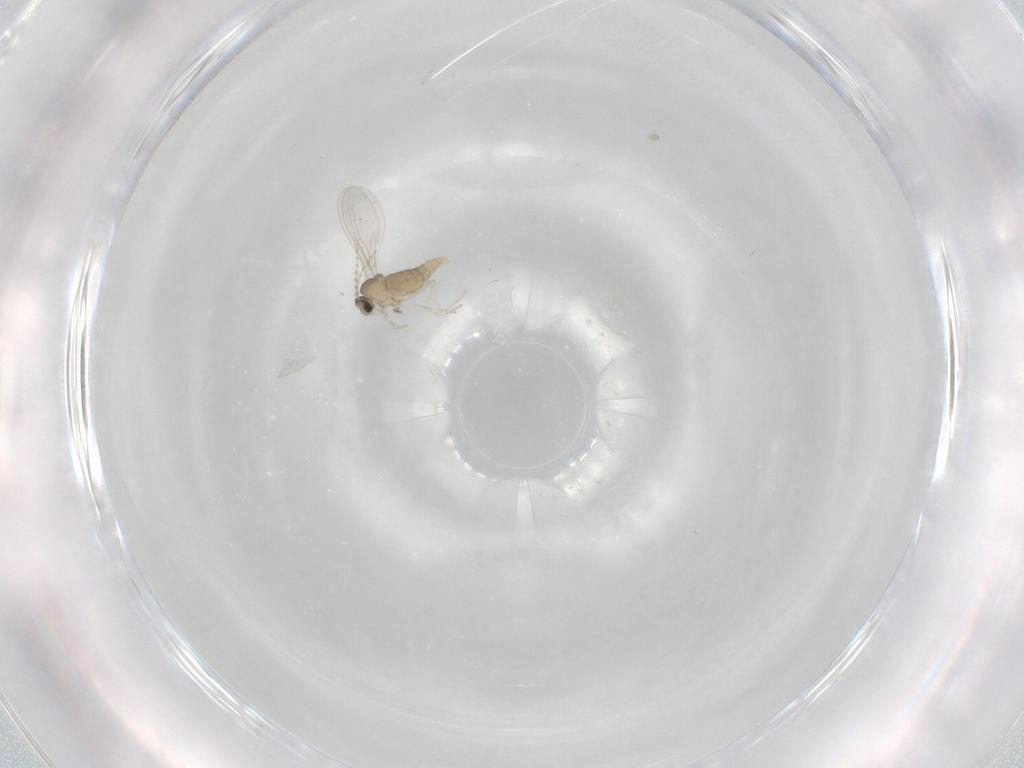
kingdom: Animalia
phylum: Arthropoda
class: Insecta
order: Diptera
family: Cecidomyiidae
